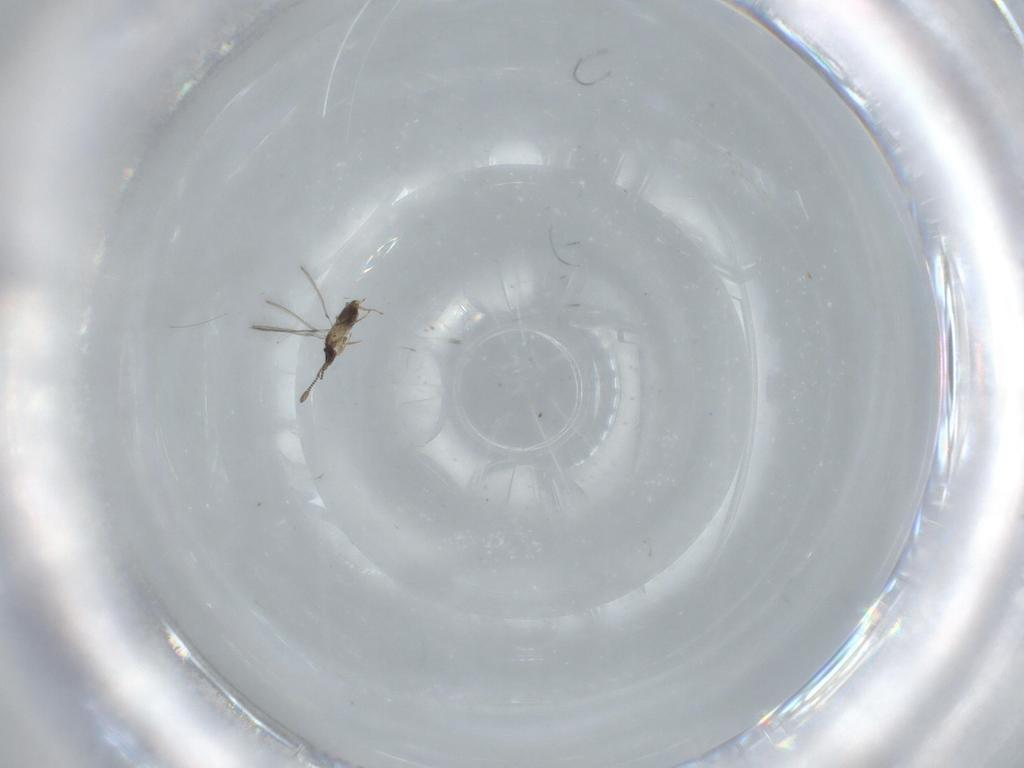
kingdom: Animalia
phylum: Arthropoda
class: Insecta
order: Hymenoptera
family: Mymaridae
